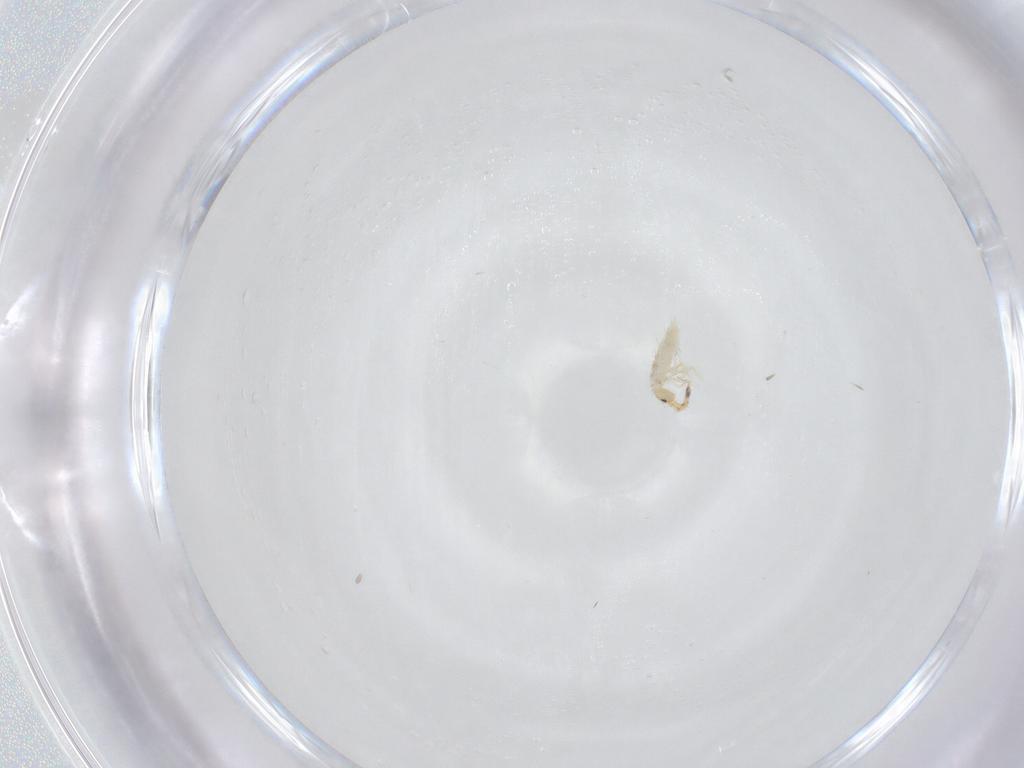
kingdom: Animalia
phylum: Arthropoda
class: Collembola
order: Entomobryomorpha
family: Entomobryidae
